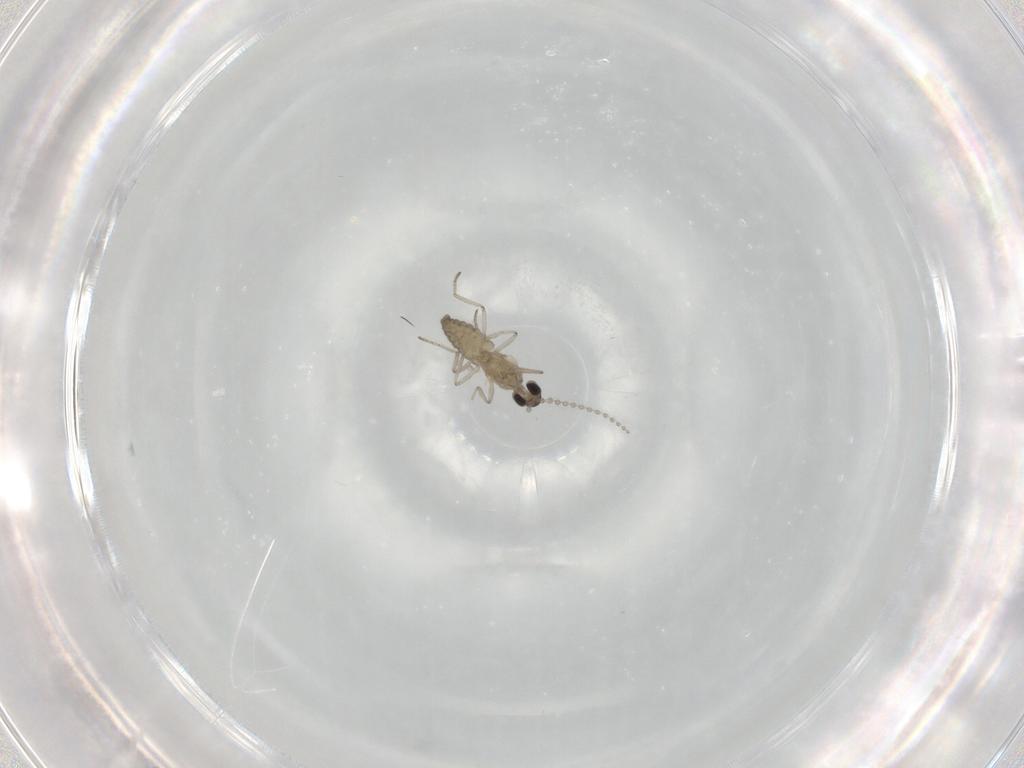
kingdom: Animalia
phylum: Arthropoda
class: Insecta
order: Diptera
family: Cecidomyiidae
